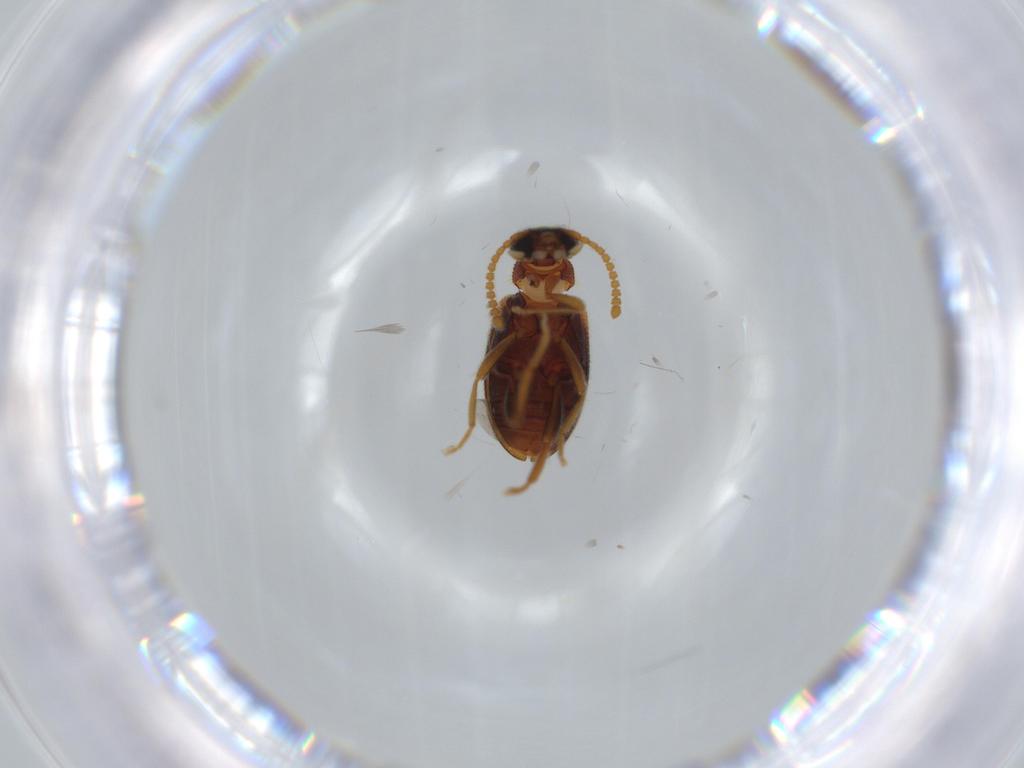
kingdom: Animalia
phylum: Arthropoda
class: Insecta
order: Coleoptera
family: Aderidae
